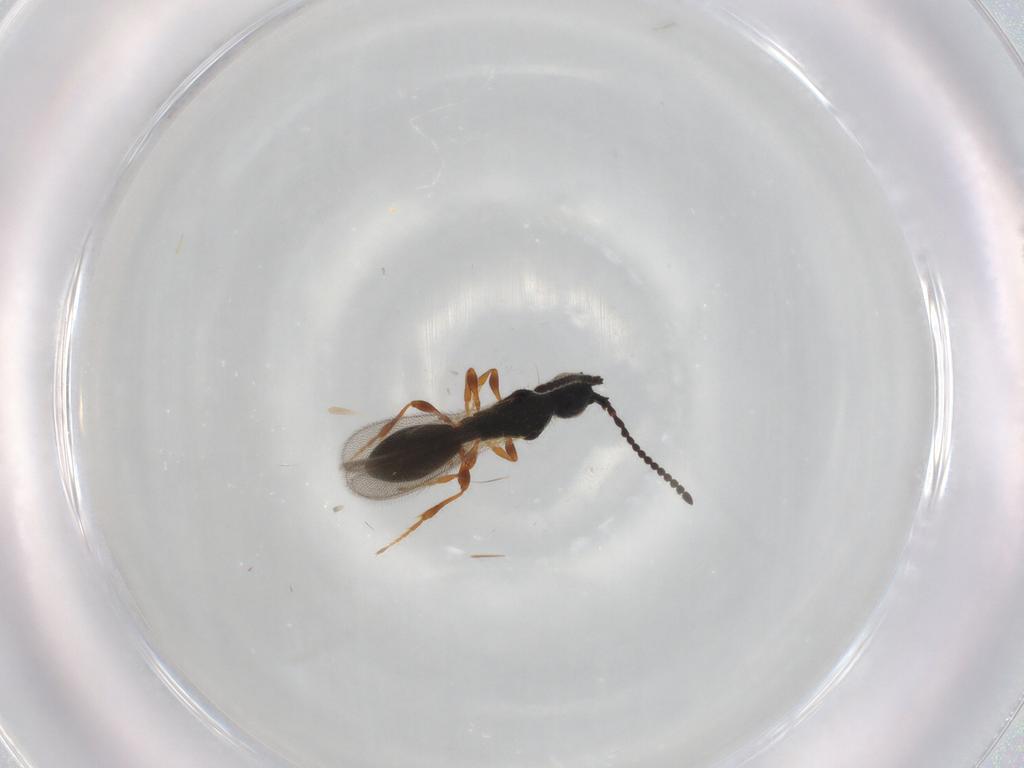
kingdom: Animalia
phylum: Arthropoda
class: Insecta
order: Hymenoptera
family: Diapriidae
